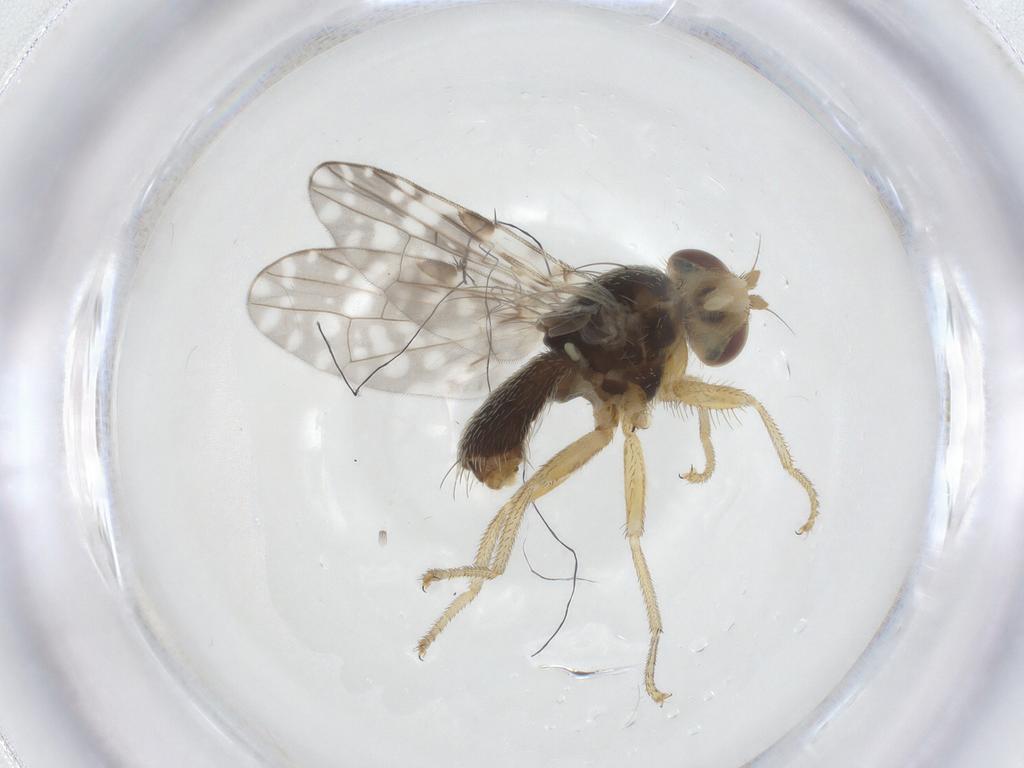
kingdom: Animalia
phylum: Arthropoda
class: Insecta
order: Diptera
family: Tephritidae
